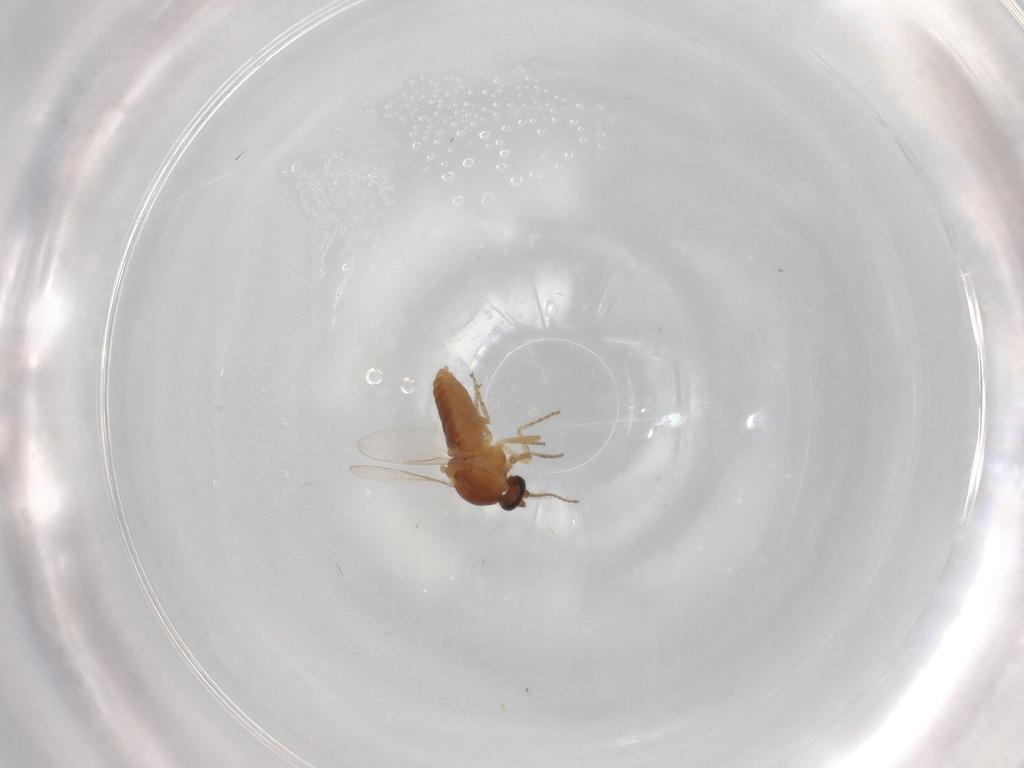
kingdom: Animalia
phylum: Arthropoda
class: Insecta
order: Diptera
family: Ceratopogonidae
